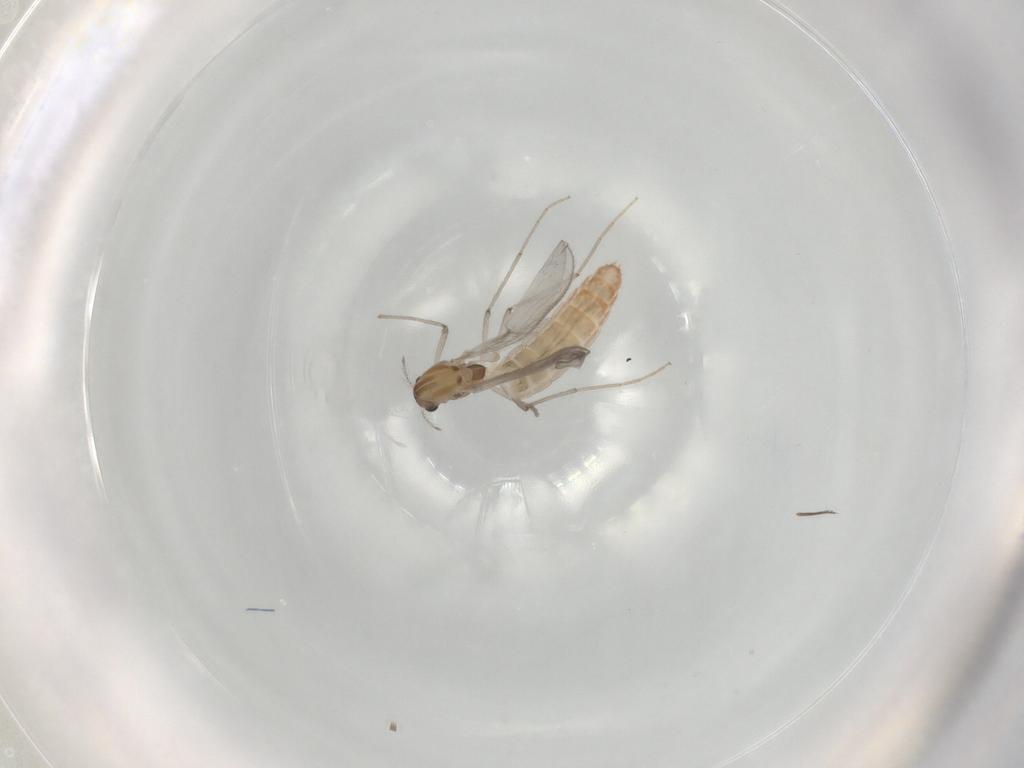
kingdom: Animalia
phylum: Arthropoda
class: Insecta
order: Diptera
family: Chironomidae
